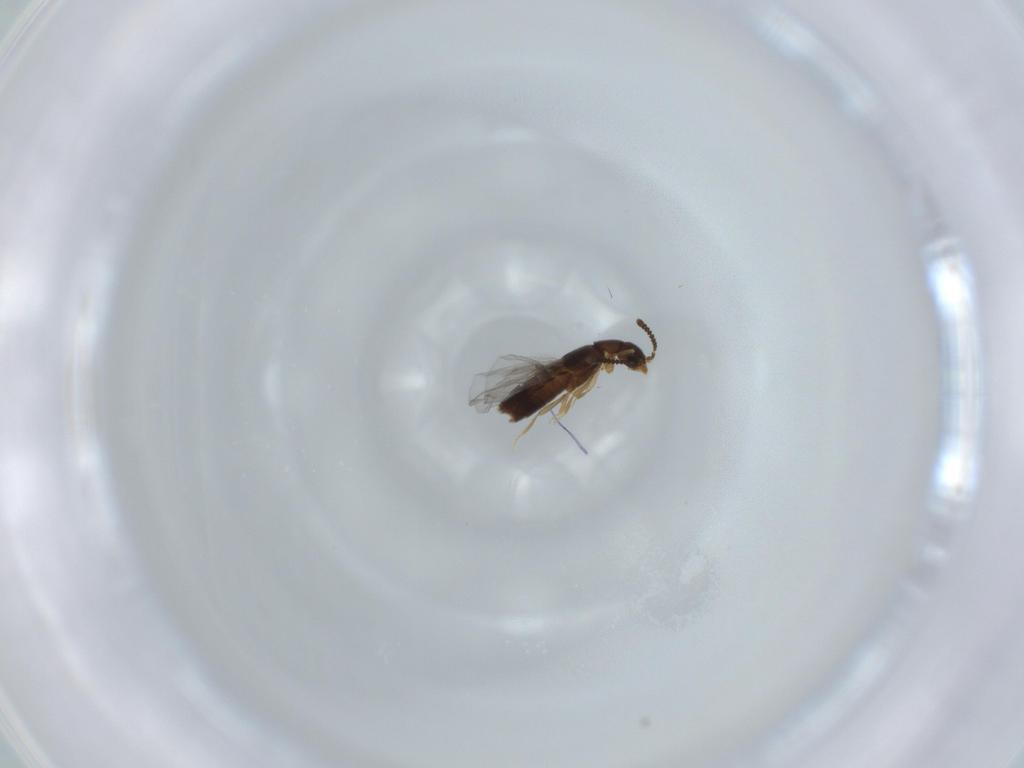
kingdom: Animalia
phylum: Arthropoda
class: Insecta
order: Coleoptera
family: Staphylinidae
